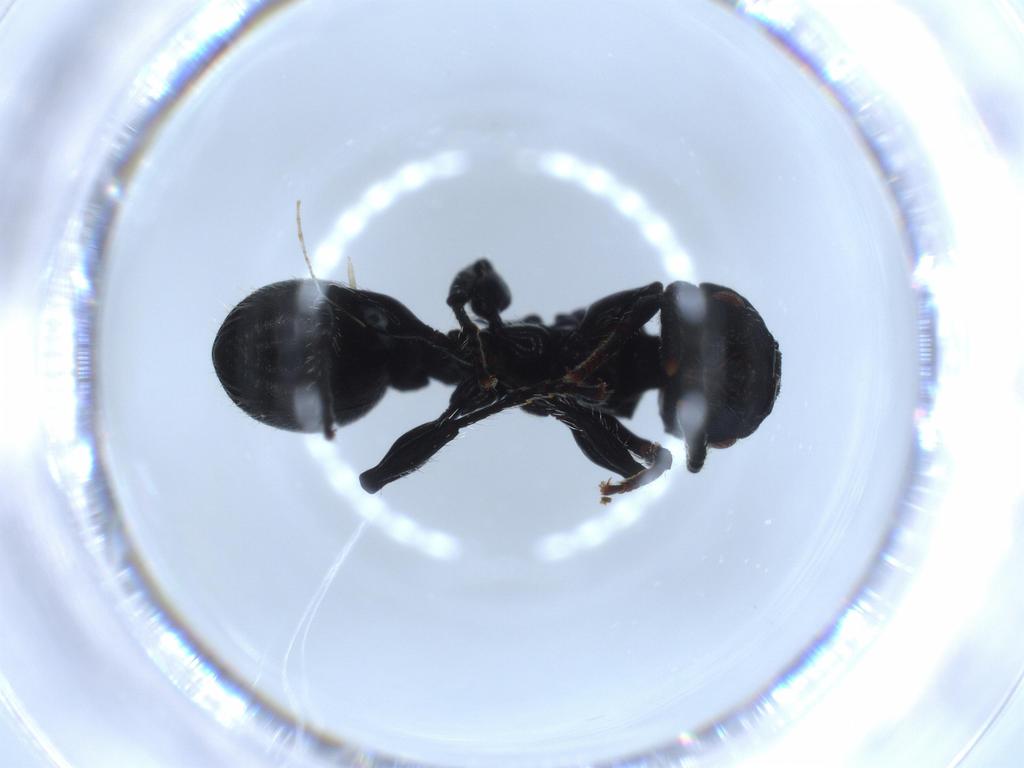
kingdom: Animalia
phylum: Arthropoda
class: Insecta
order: Hymenoptera
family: Formicidae
